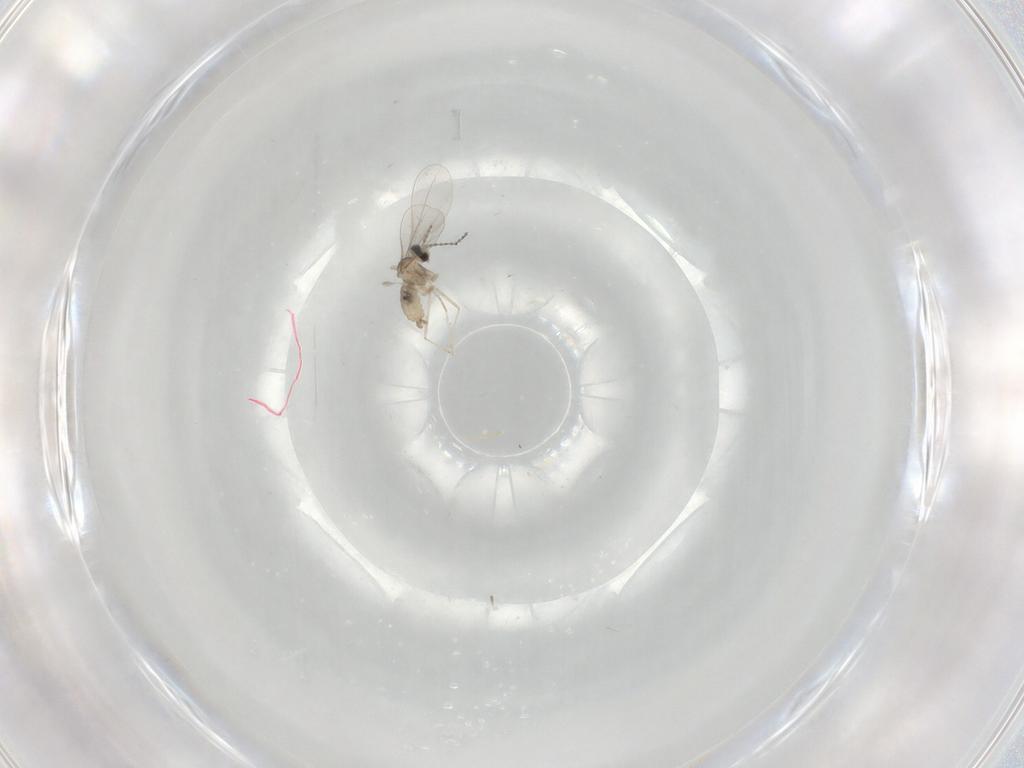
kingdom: Animalia
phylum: Arthropoda
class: Insecta
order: Diptera
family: Cecidomyiidae
